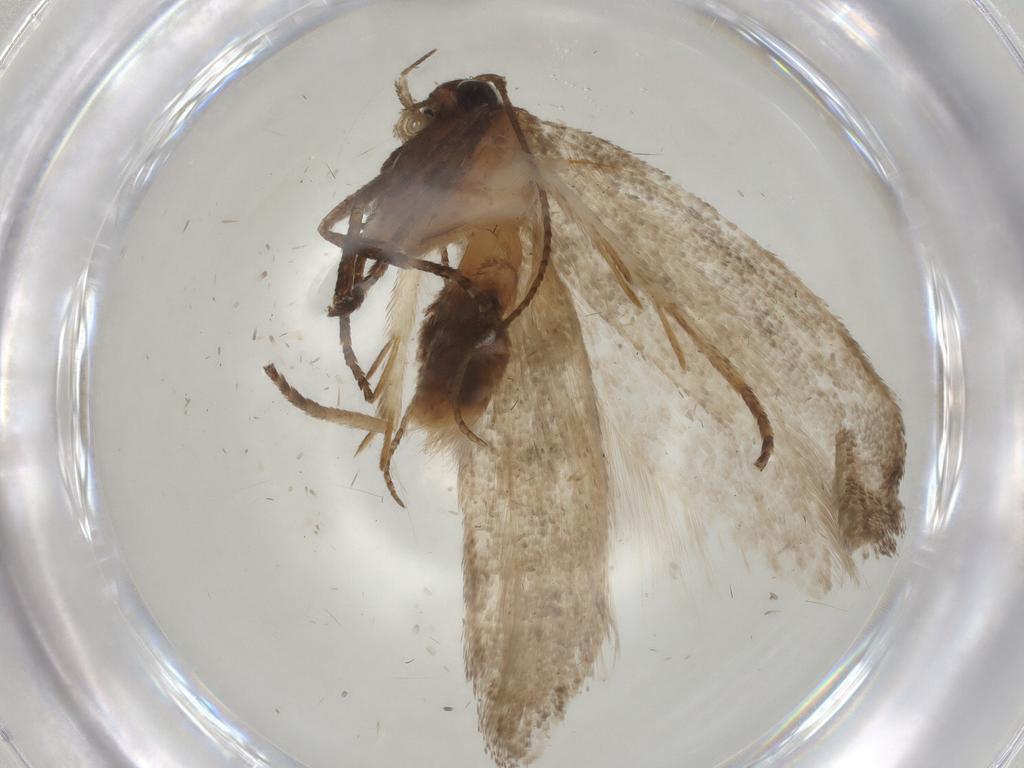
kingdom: Animalia
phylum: Arthropoda
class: Insecta
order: Lepidoptera
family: Cosmopterigidae
